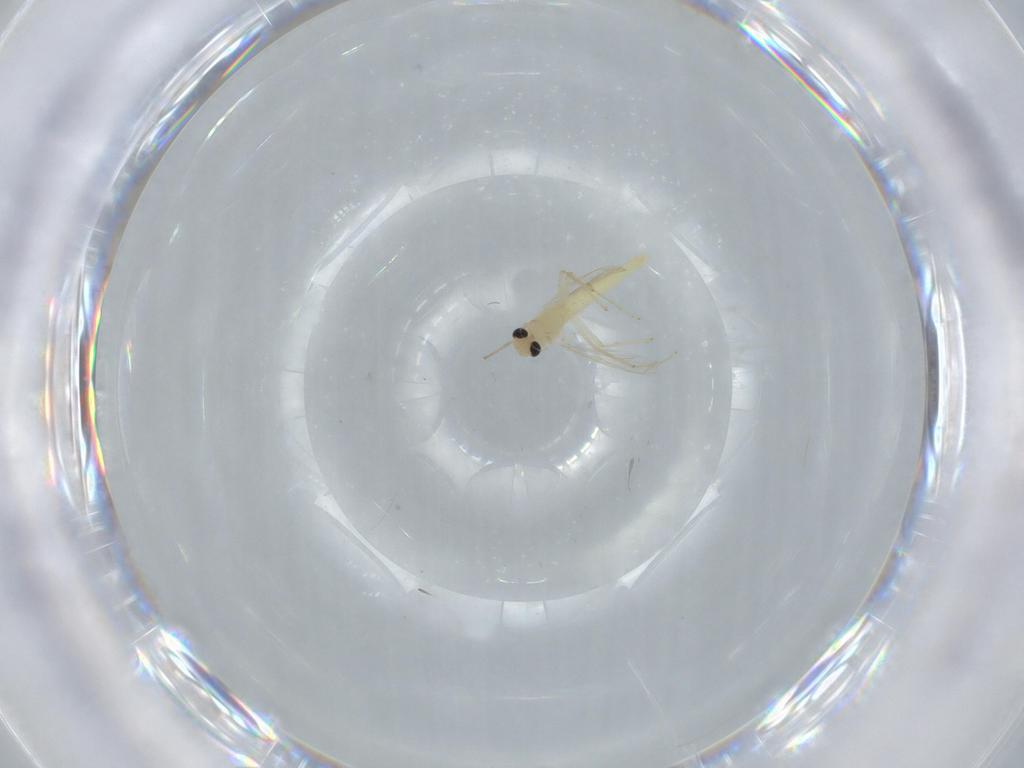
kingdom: Animalia
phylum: Arthropoda
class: Insecta
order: Diptera
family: Chironomidae
